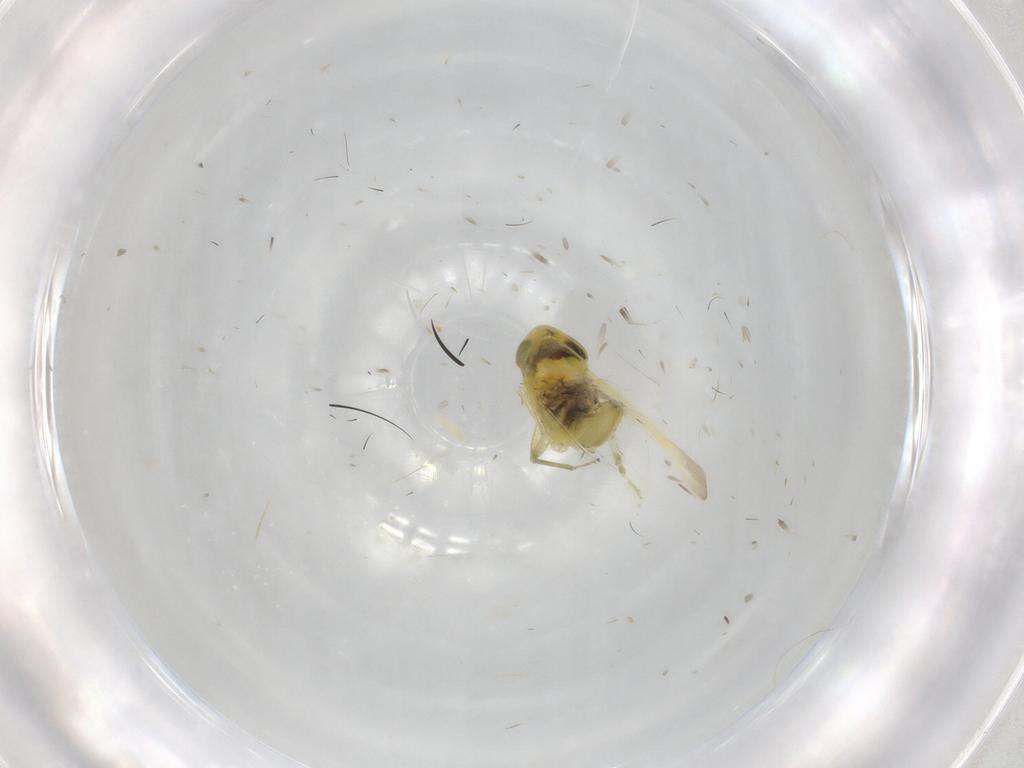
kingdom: Animalia
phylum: Arthropoda
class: Insecta
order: Hemiptera
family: Cicadellidae
